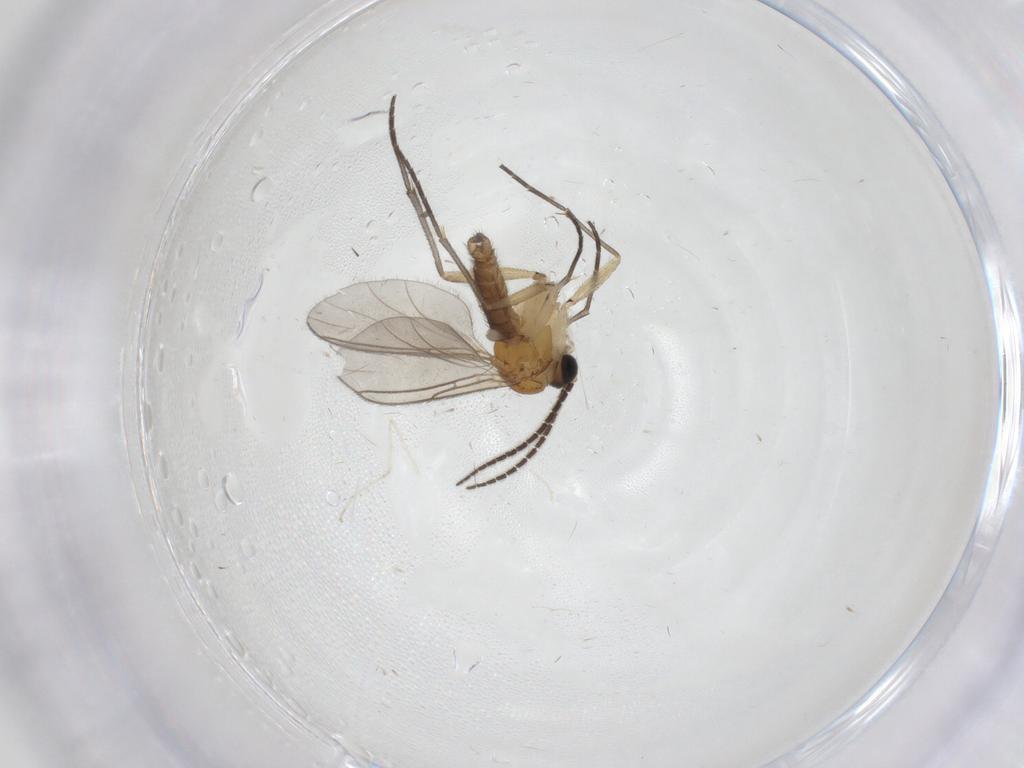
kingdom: Animalia
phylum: Arthropoda
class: Insecta
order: Diptera
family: Sciaridae
